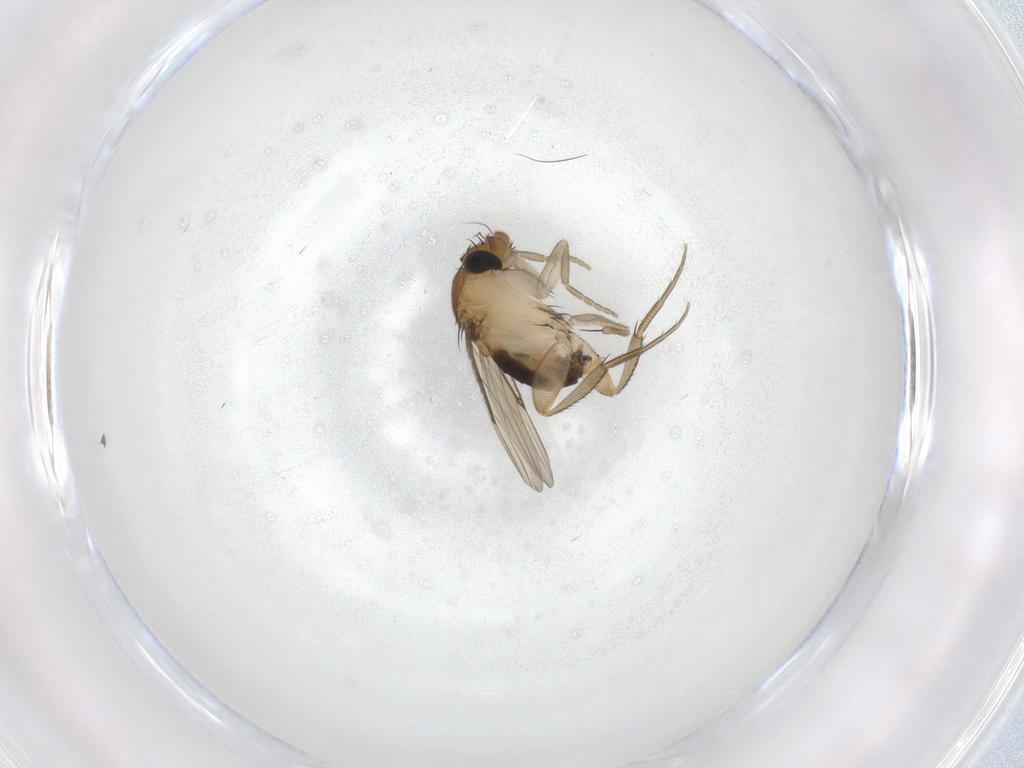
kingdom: Animalia
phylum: Arthropoda
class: Insecta
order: Diptera
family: Phoridae
